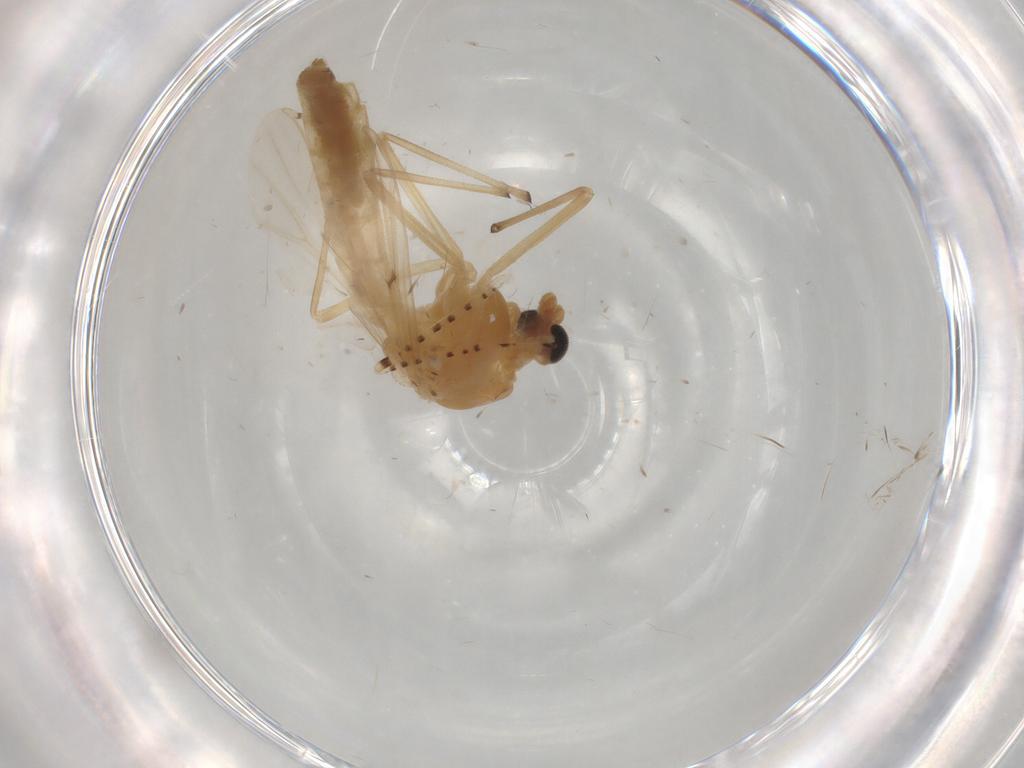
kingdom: Animalia
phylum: Arthropoda
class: Insecta
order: Diptera
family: Chaoboridae
